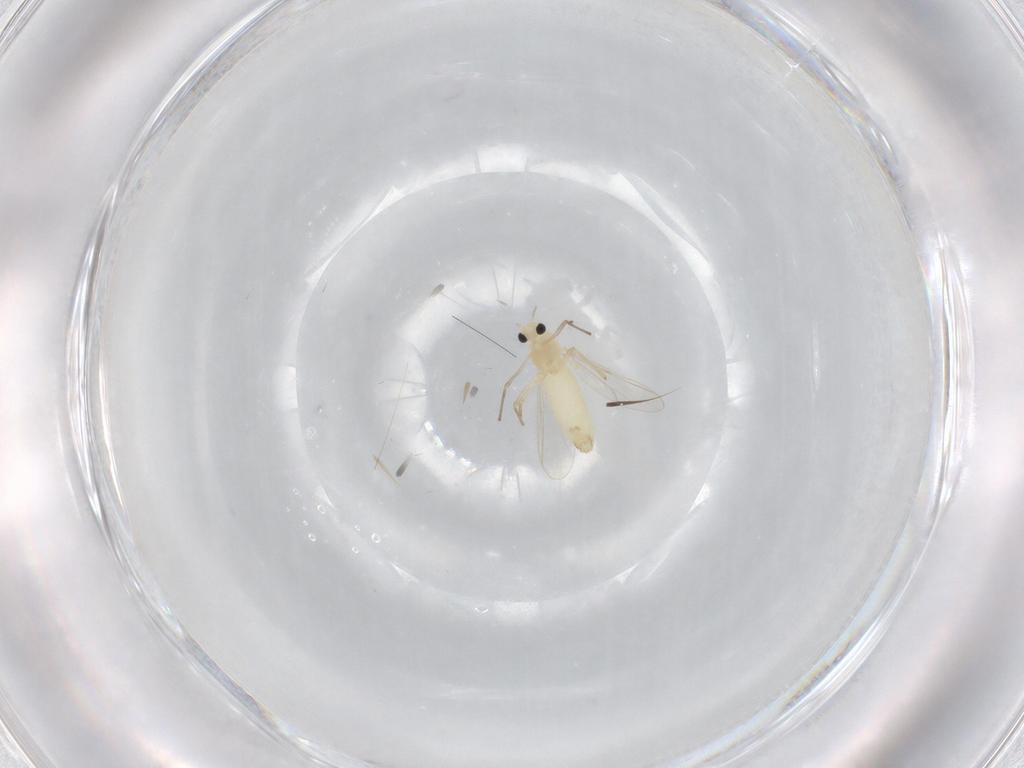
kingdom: Animalia
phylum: Arthropoda
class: Insecta
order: Diptera
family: Chironomidae
